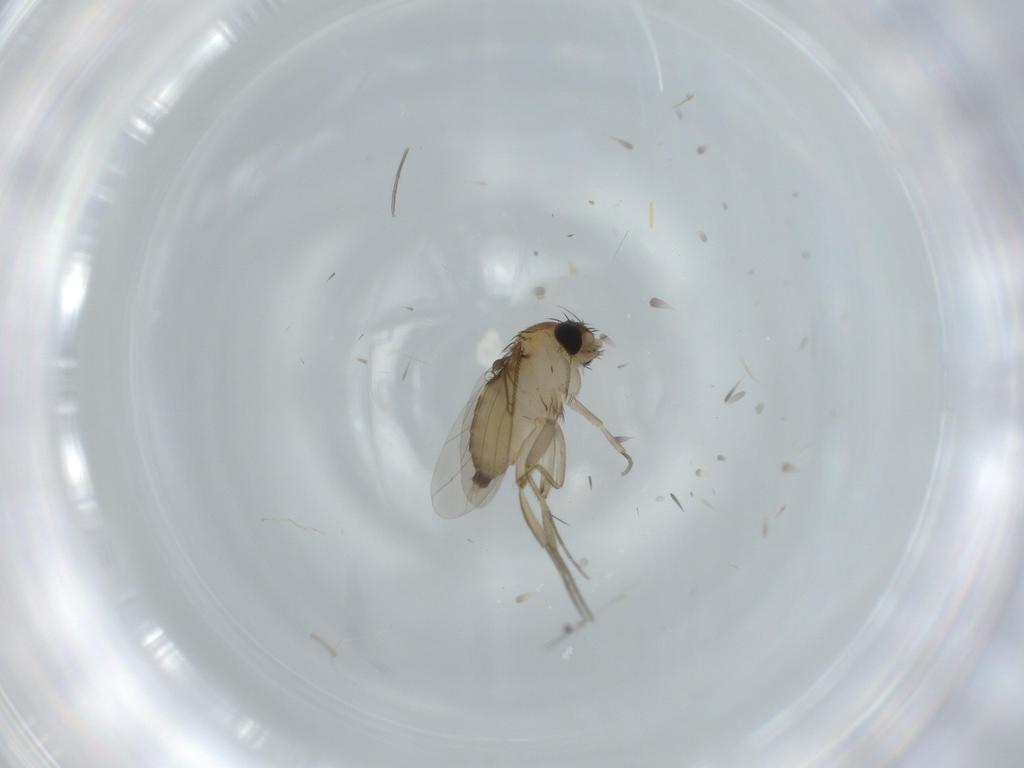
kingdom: Animalia
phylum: Arthropoda
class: Insecta
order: Diptera
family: Phoridae
